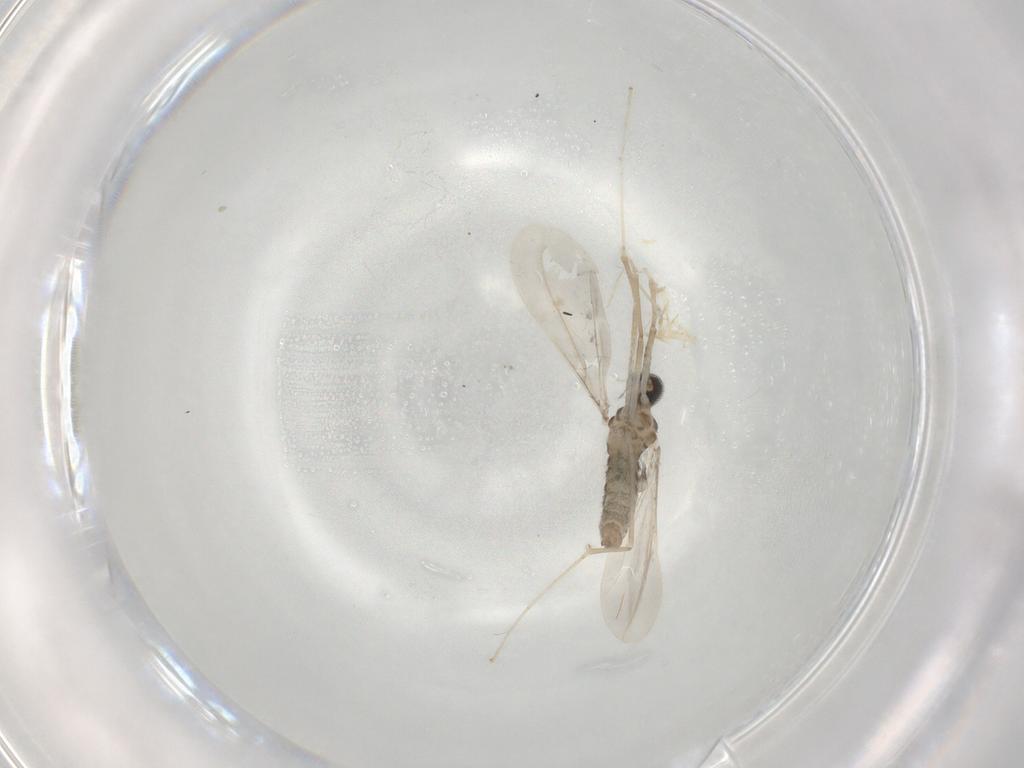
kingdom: Animalia
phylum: Arthropoda
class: Insecta
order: Diptera
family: Cecidomyiidae
